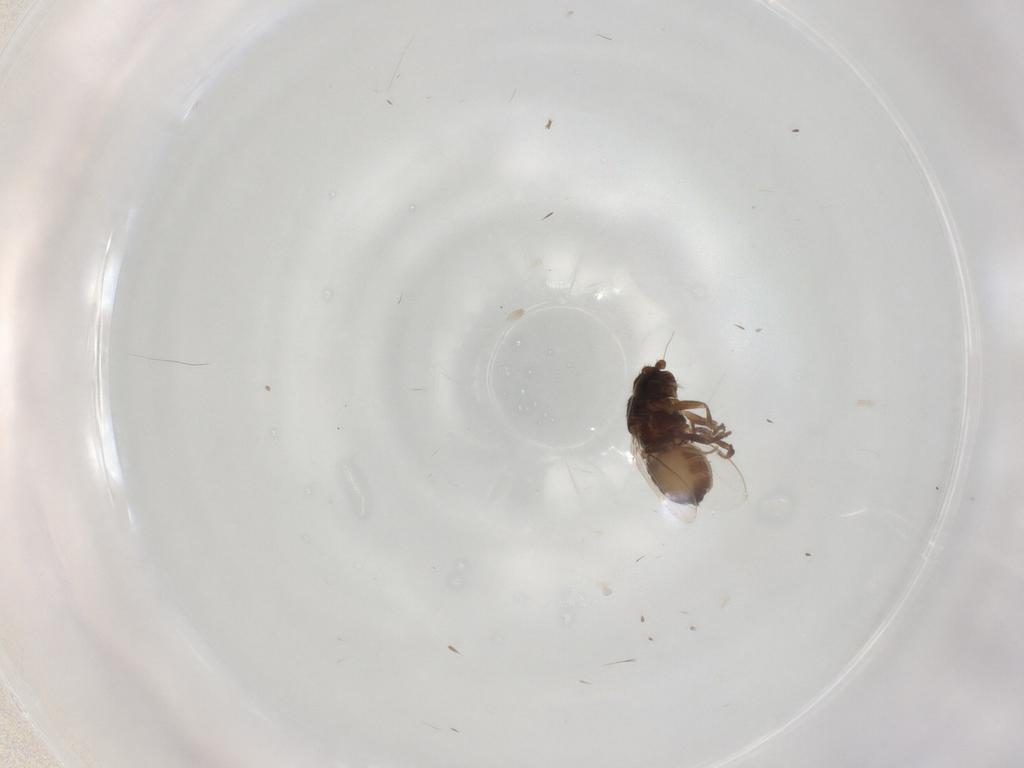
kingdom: Animalia
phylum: Arthropoda
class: Insecta
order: Diptera
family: Sphaeroceridae
